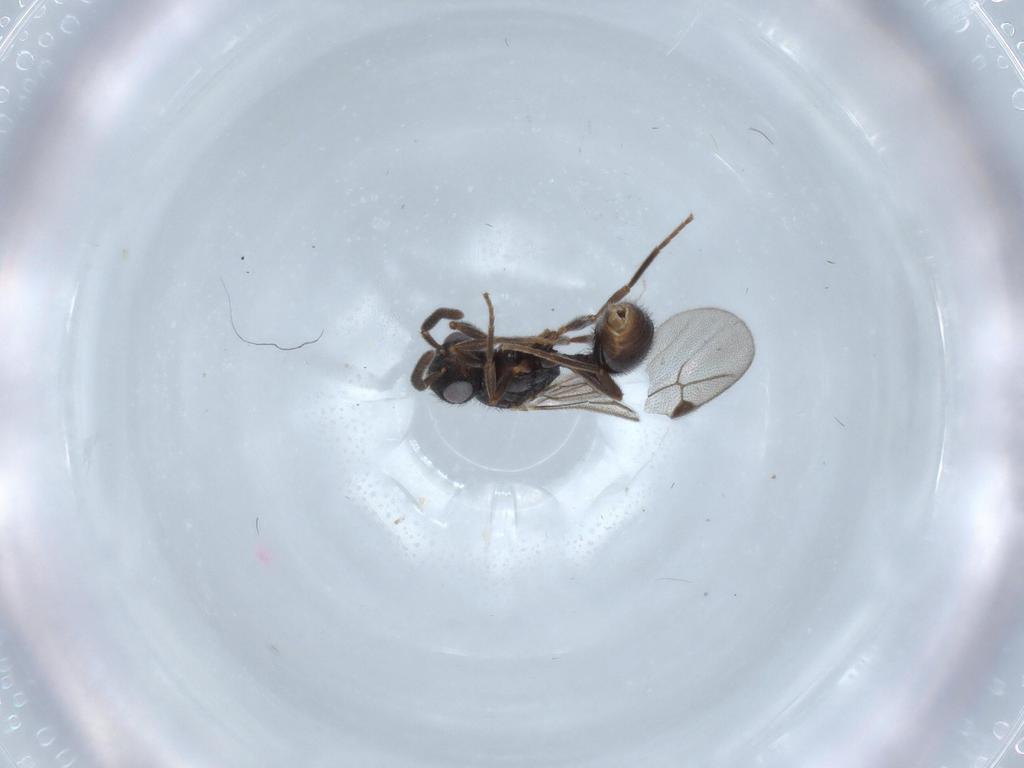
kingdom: Animalia
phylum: Arthropoda
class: Insecta
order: Hymenoptera
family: Formicidae
